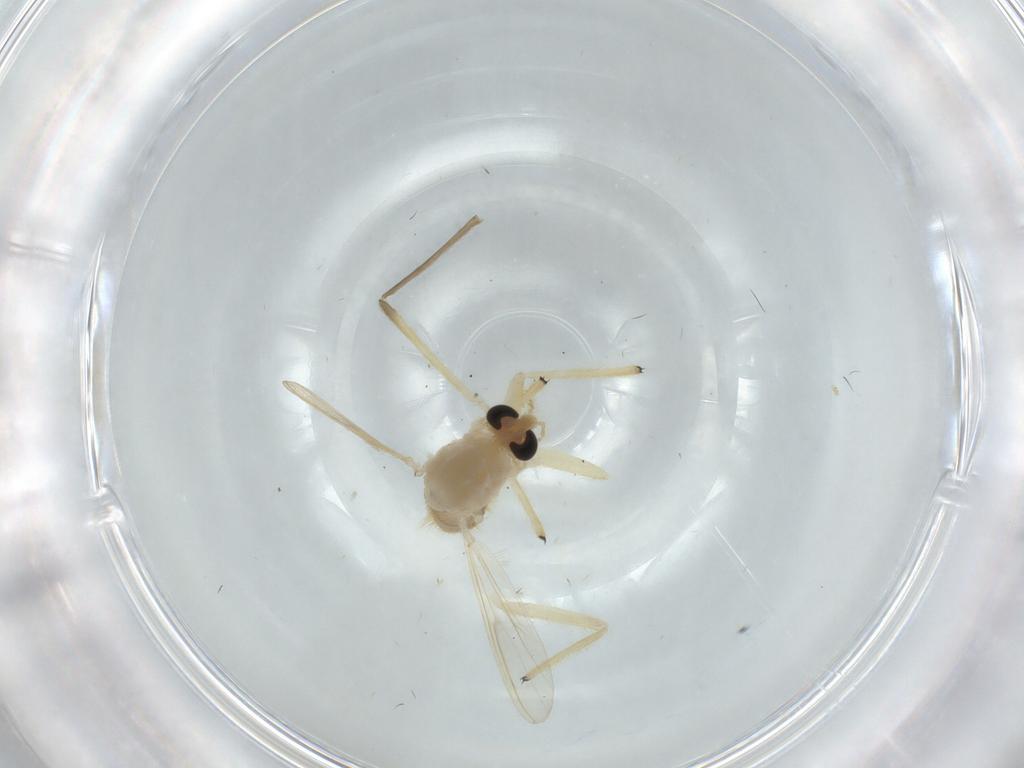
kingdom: Animalia
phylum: Arthropoda
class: Insecta
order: Diptera
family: Chironomidae
